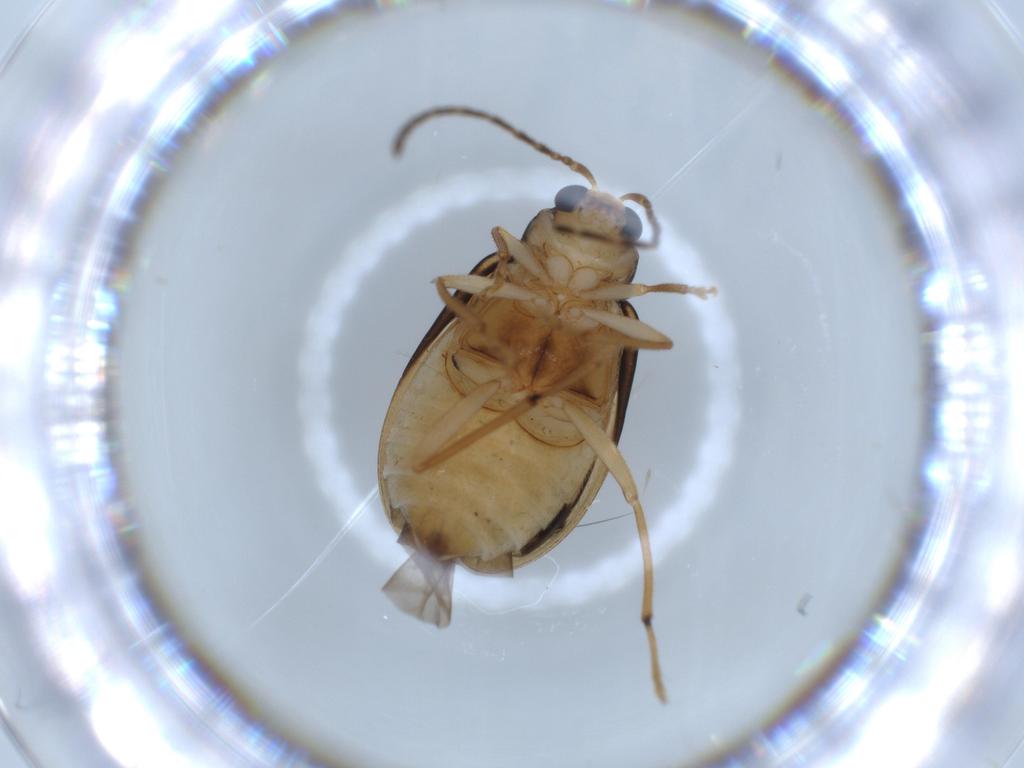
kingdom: Animalia
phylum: Arthropoda
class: Insecta
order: Coleoptera
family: Chrysomelidae
